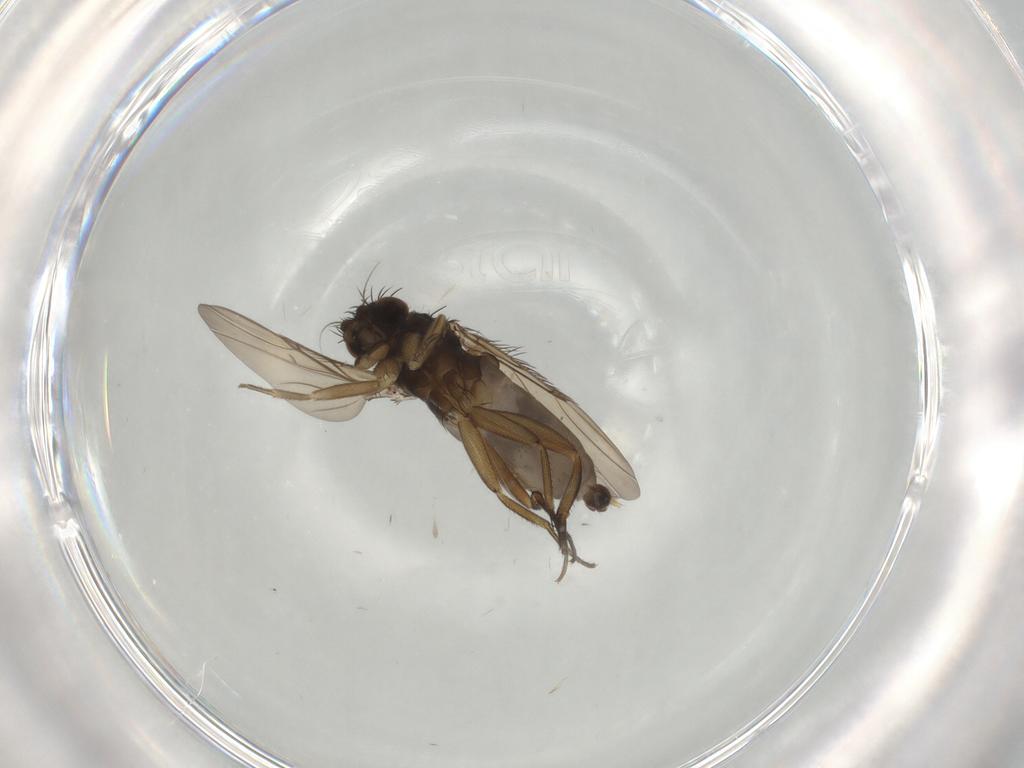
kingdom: Animalia
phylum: Arthropoda
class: Insecta
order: Diptera
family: Phoridae
